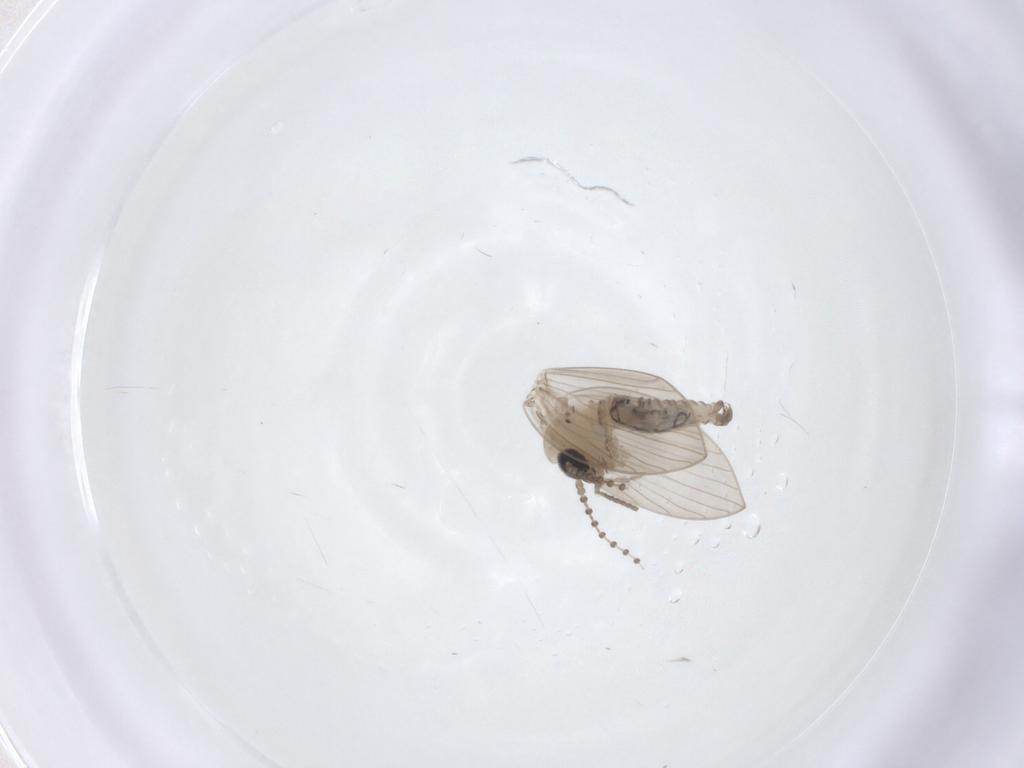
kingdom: Animalia
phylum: Arthropoda
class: Insecta
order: Diptera
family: Psychodidae
